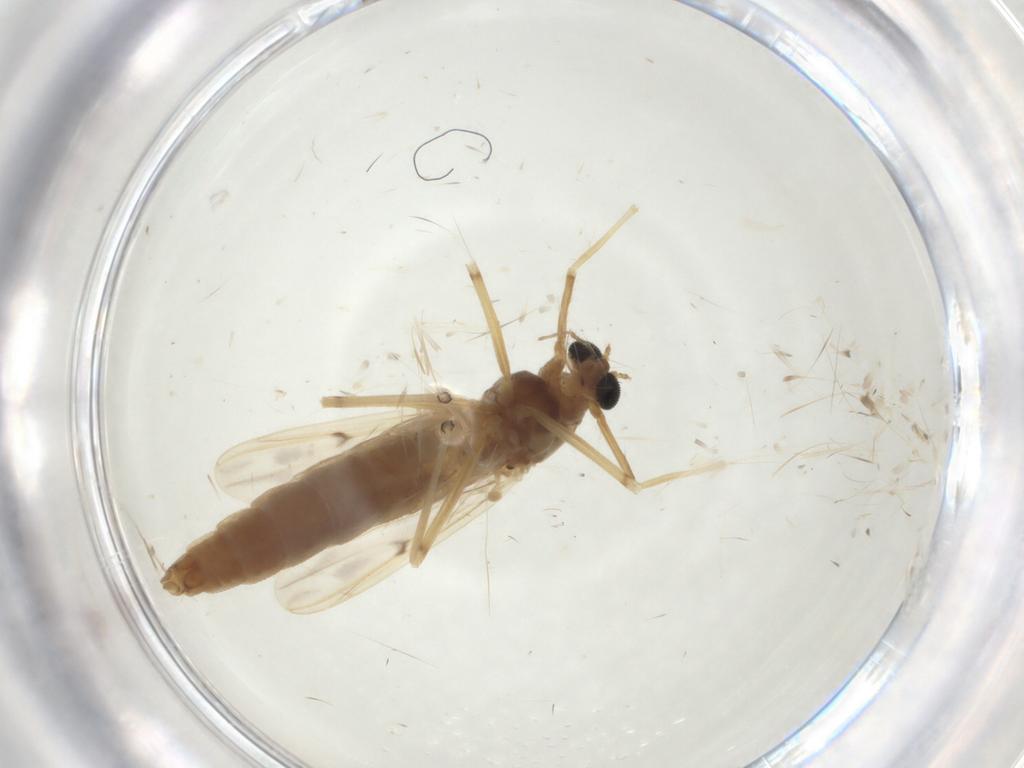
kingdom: Animalia
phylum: Arthropoda
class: Insecta
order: Diptera
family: Chironomidae
